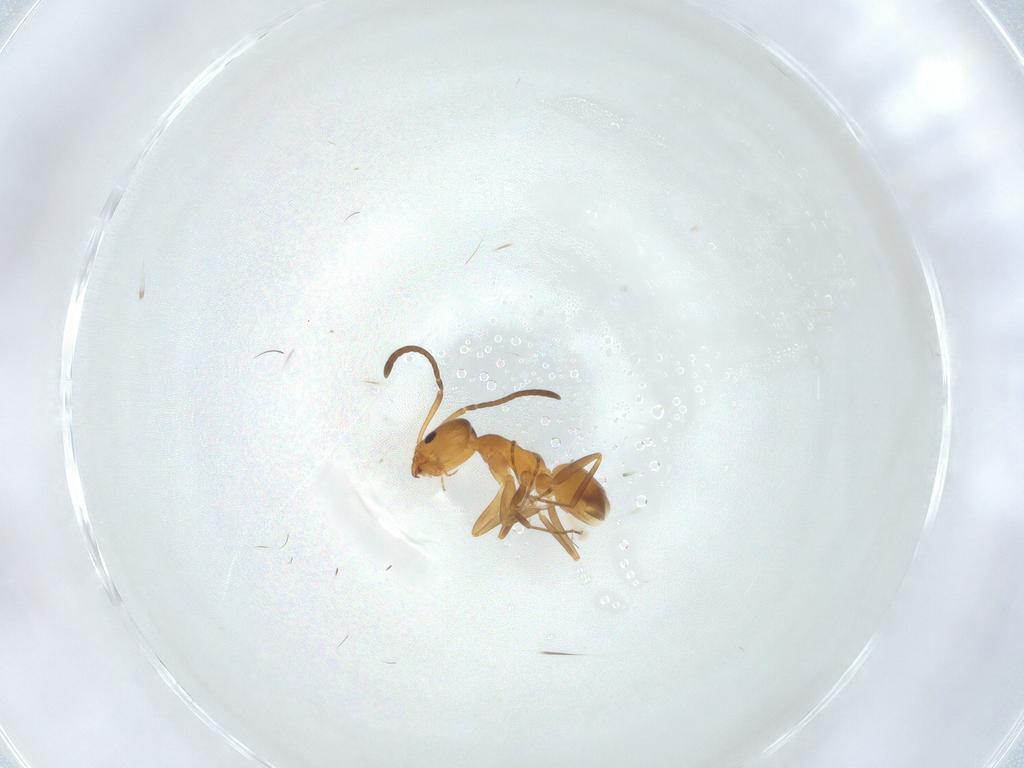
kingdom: Animalia
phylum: Arthropoda
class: Insecta
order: Hymenoptera
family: Formicidae
